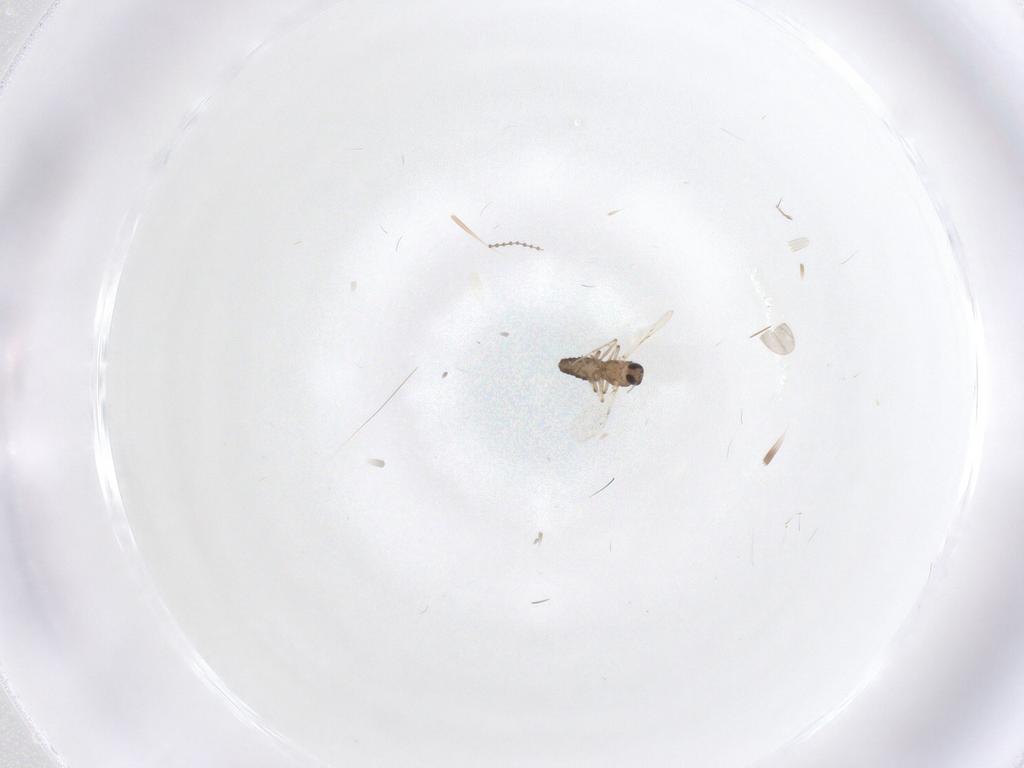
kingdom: Animalia
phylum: Arthropoda
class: Insecta
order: Diptera
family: Ceratopogonidae
